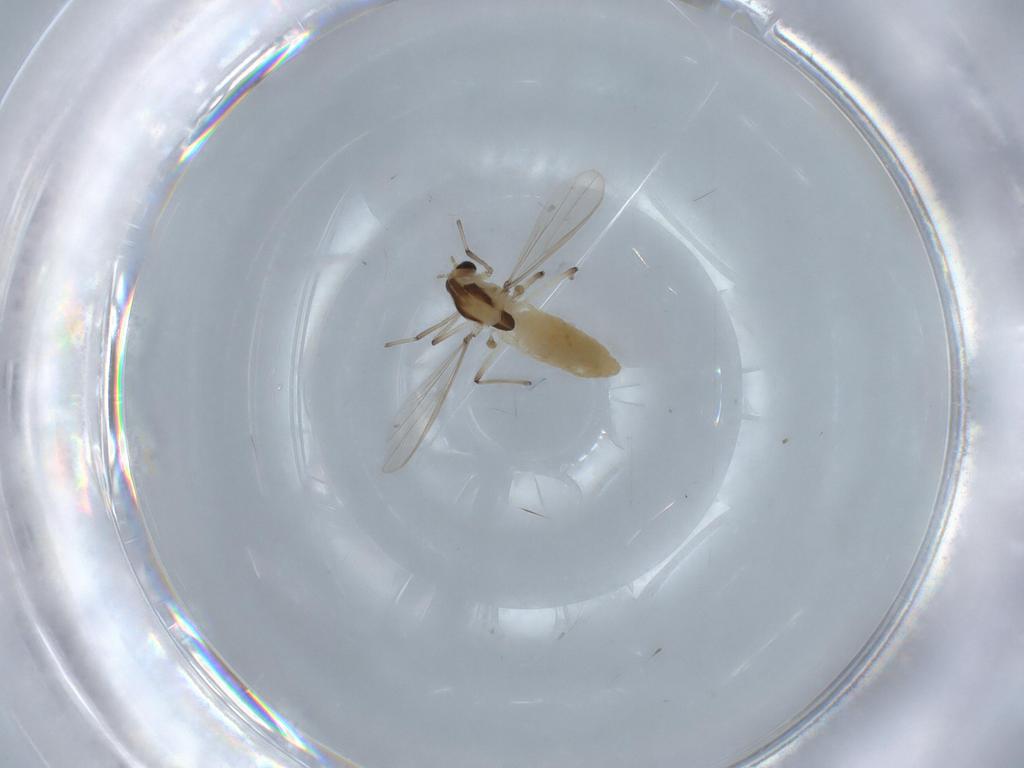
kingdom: Animalia
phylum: Arthropoda
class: Insecta
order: Diptera
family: Chironomidae
